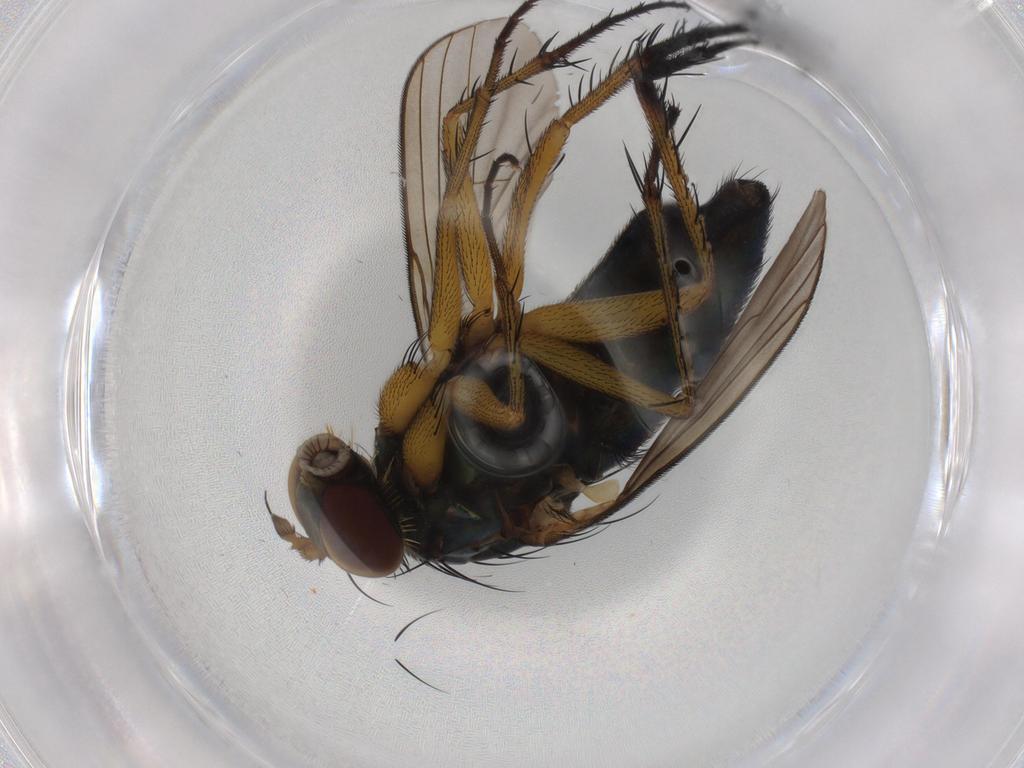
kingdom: Animalia
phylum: Arthropoda
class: Insecta
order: Diptera
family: Dolichopodidae
